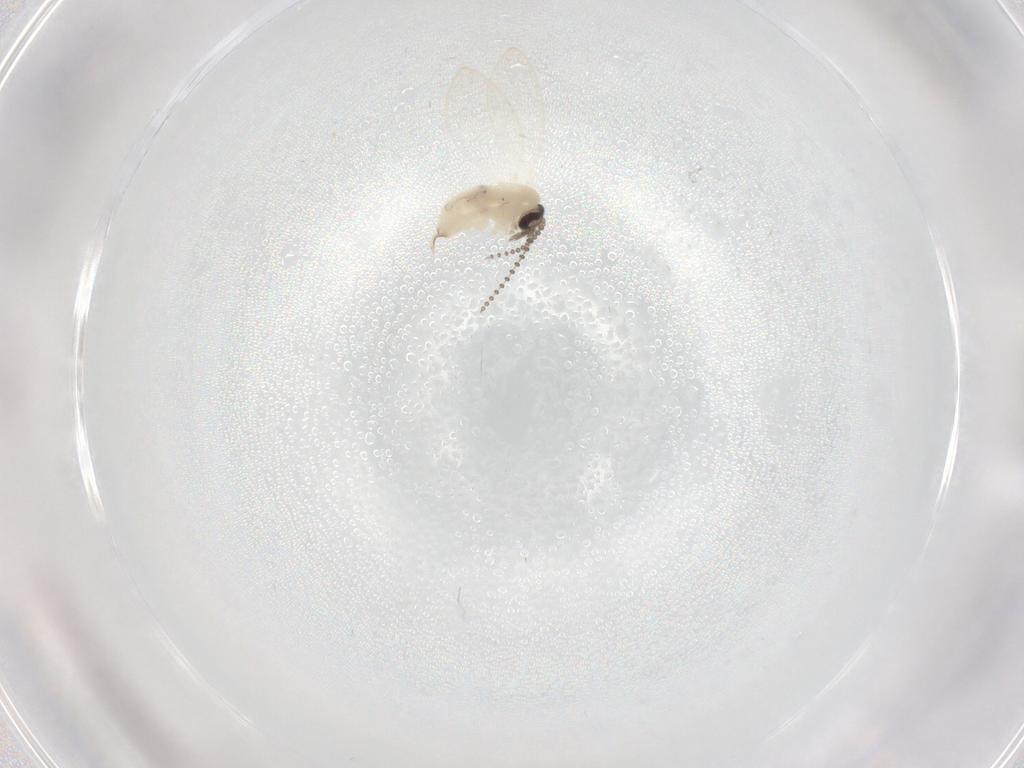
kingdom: Animalia
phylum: Arthropoda
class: Insecta
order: Diptera
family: Psychodidae
